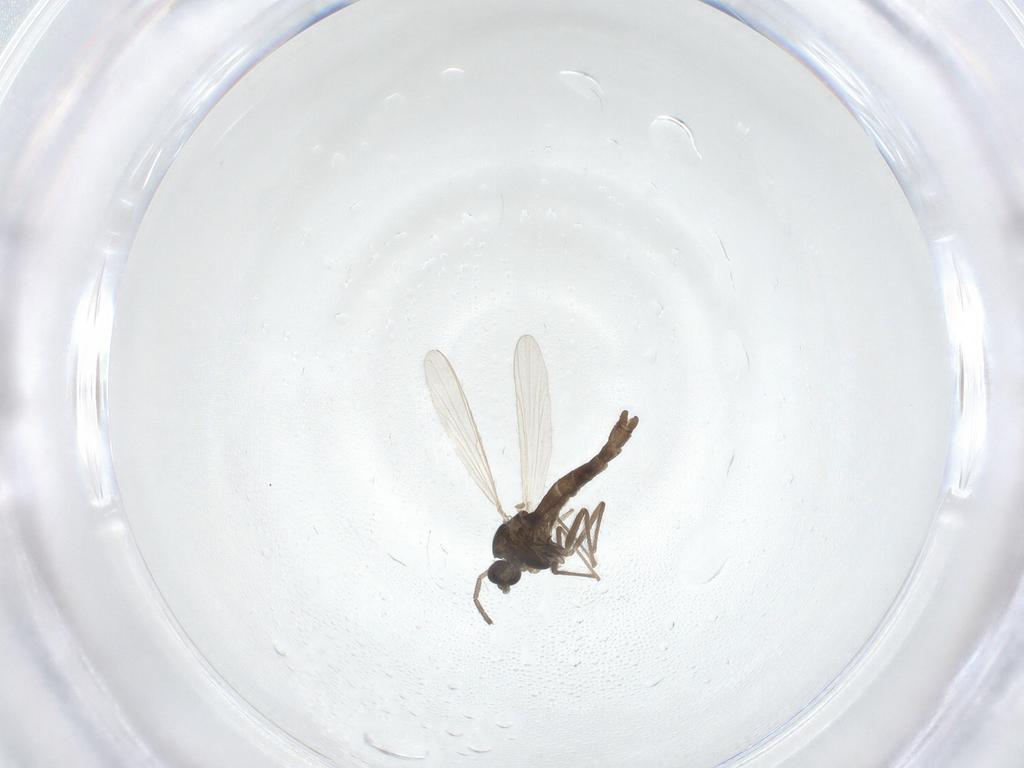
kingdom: Animalia
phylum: Arthropoda
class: Insecta
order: Diptera
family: Chironomidae
